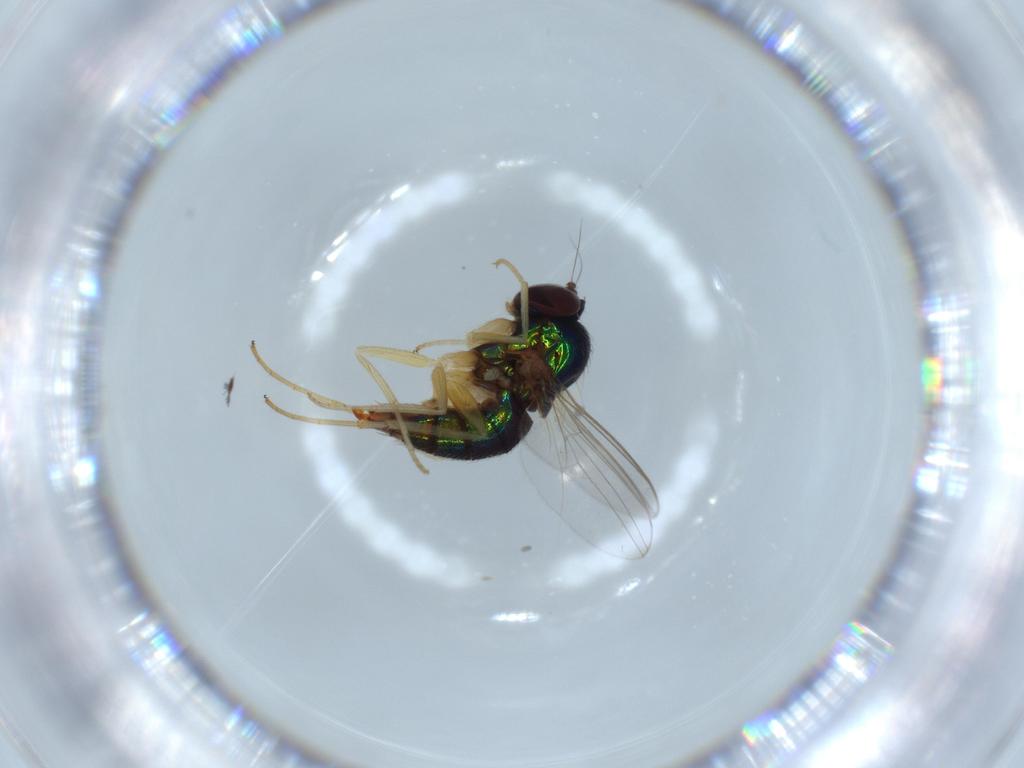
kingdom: Animalia
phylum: Arthropoda
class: Insecta
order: Diptera
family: Dolichopodidae
